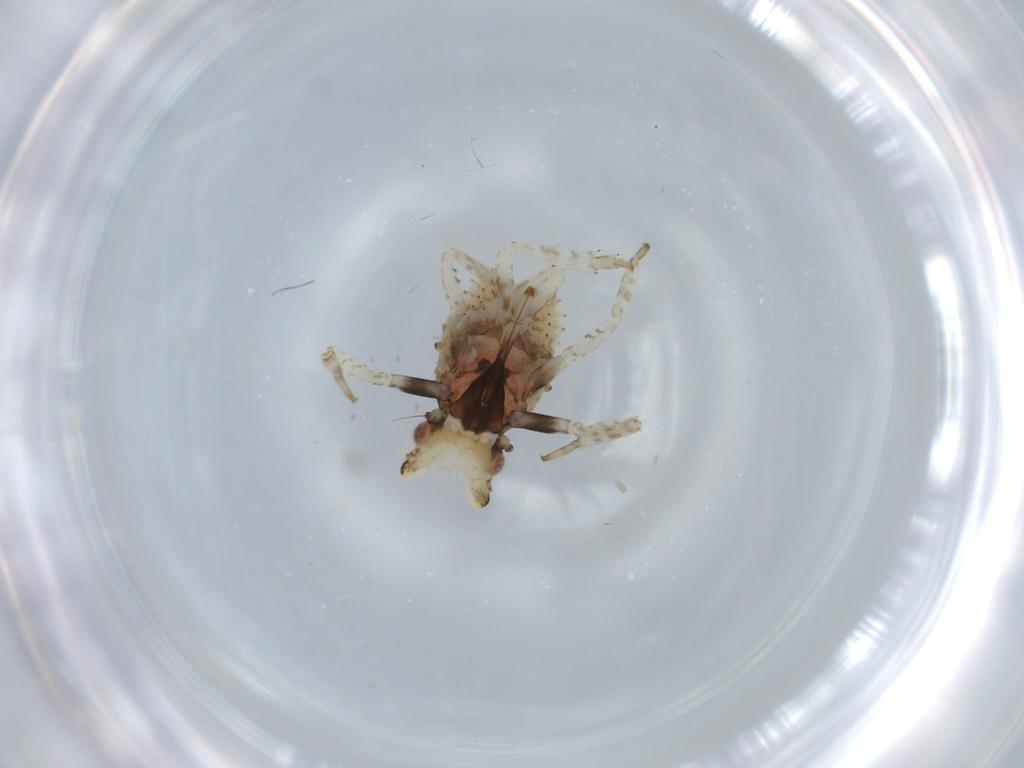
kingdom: Animalia
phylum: Arthropoda
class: Insecta
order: Hemiptera
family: Fulgoridae
